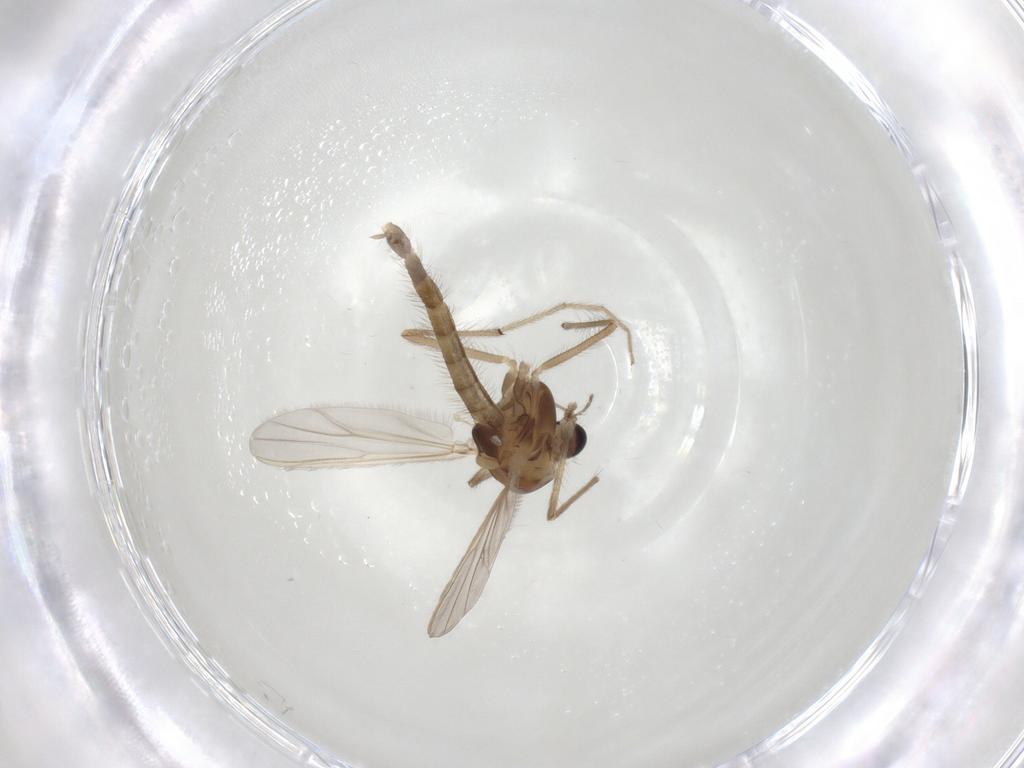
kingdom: Animalia
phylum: Arthropoda
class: Insecta
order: Diptera
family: Chironomidae
